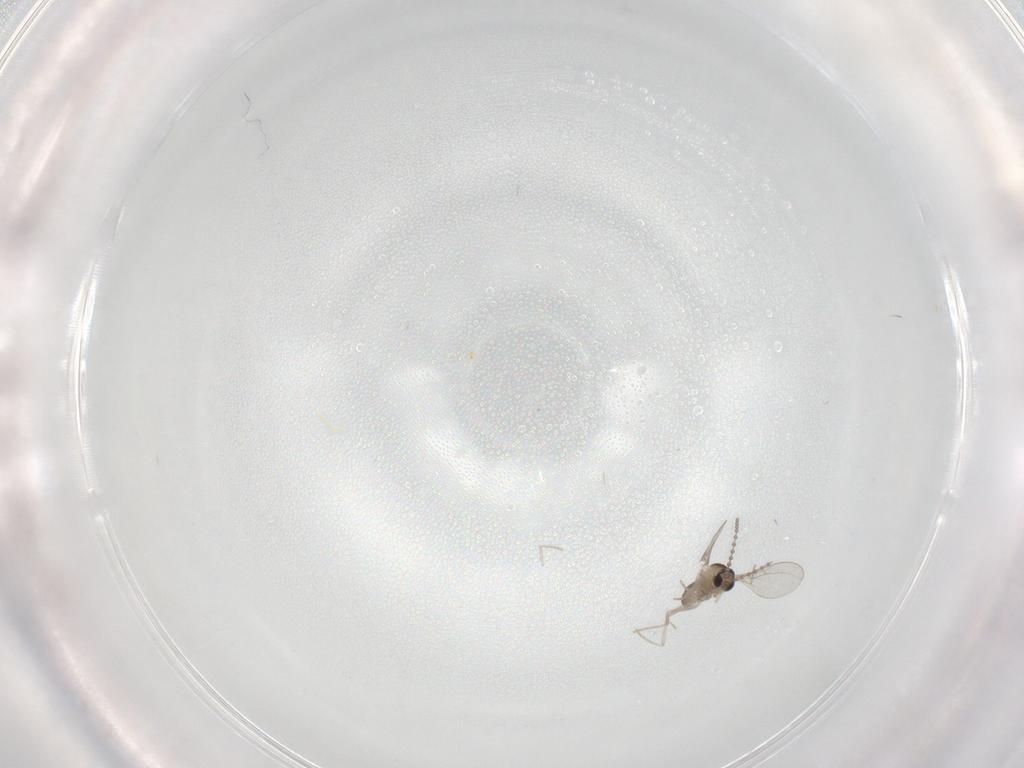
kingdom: Animalia
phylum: Arthropoda
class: Insecta
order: Diptera
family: Cecidomyiidae
